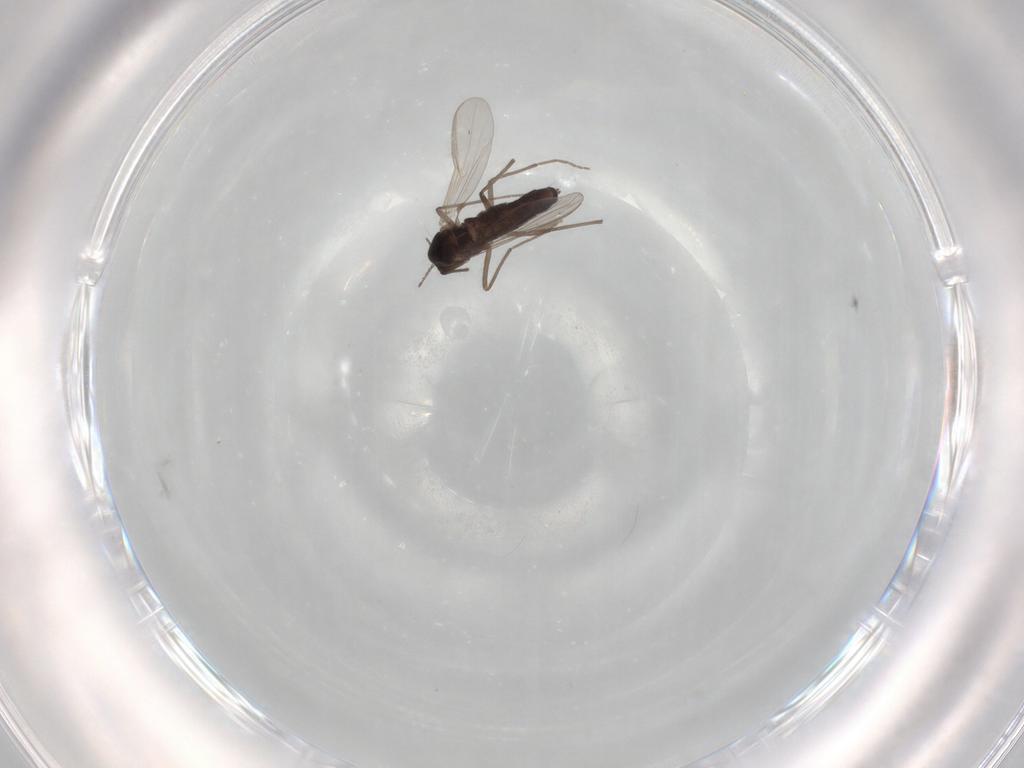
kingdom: Animalia
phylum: Arthropoda
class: Insecta
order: Diptera
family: Chironomidae
